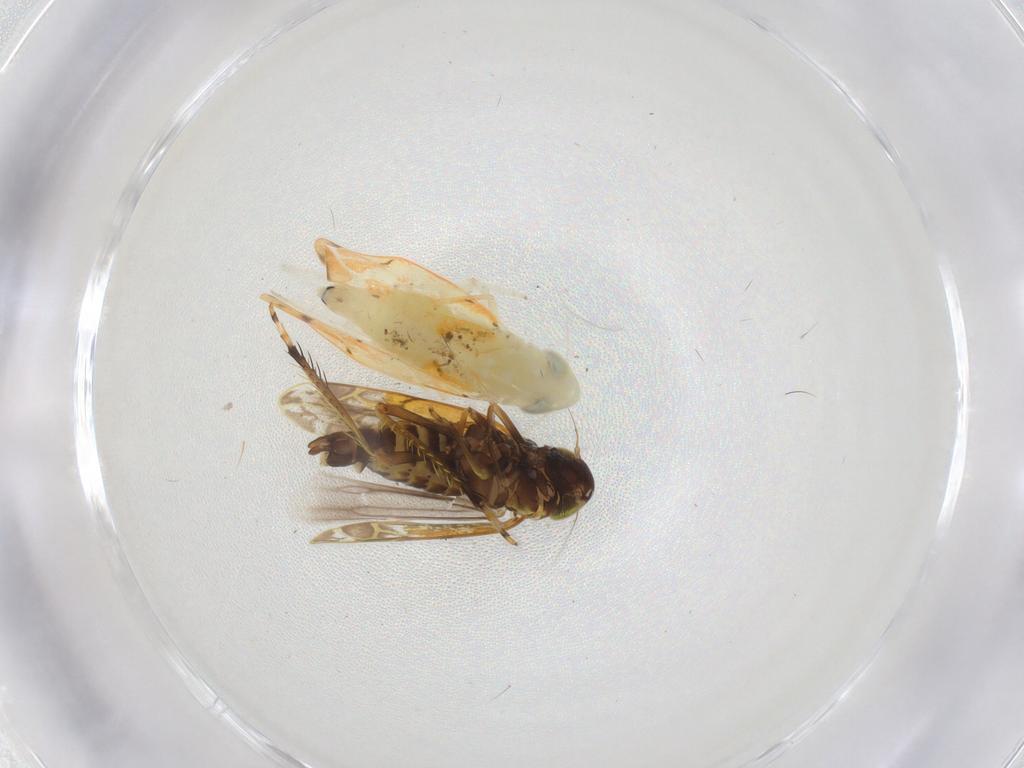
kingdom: Animalia
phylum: Arthropoda
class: Insecta
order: Hemiptera
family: Cicadellidae
